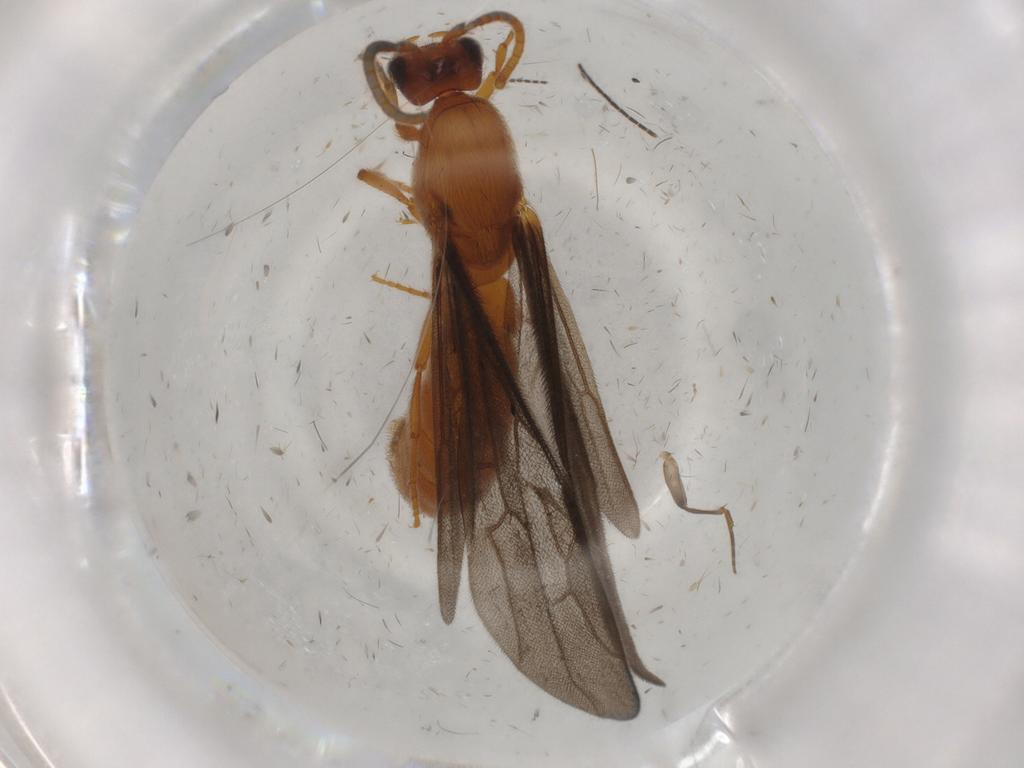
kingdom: Animalia
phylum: Arthropoda
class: Insecta
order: Hymenoptera
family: Formicidae
